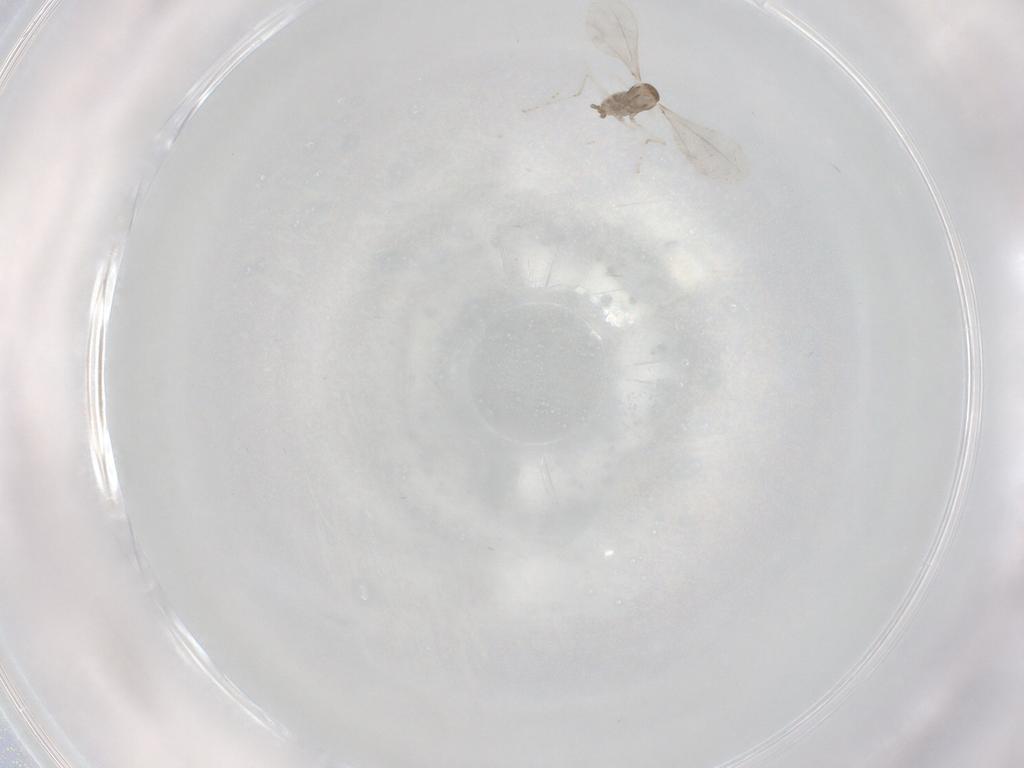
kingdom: Animalia
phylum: Arthropoda
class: Insecta
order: Diptera
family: Cecidomyiidae
